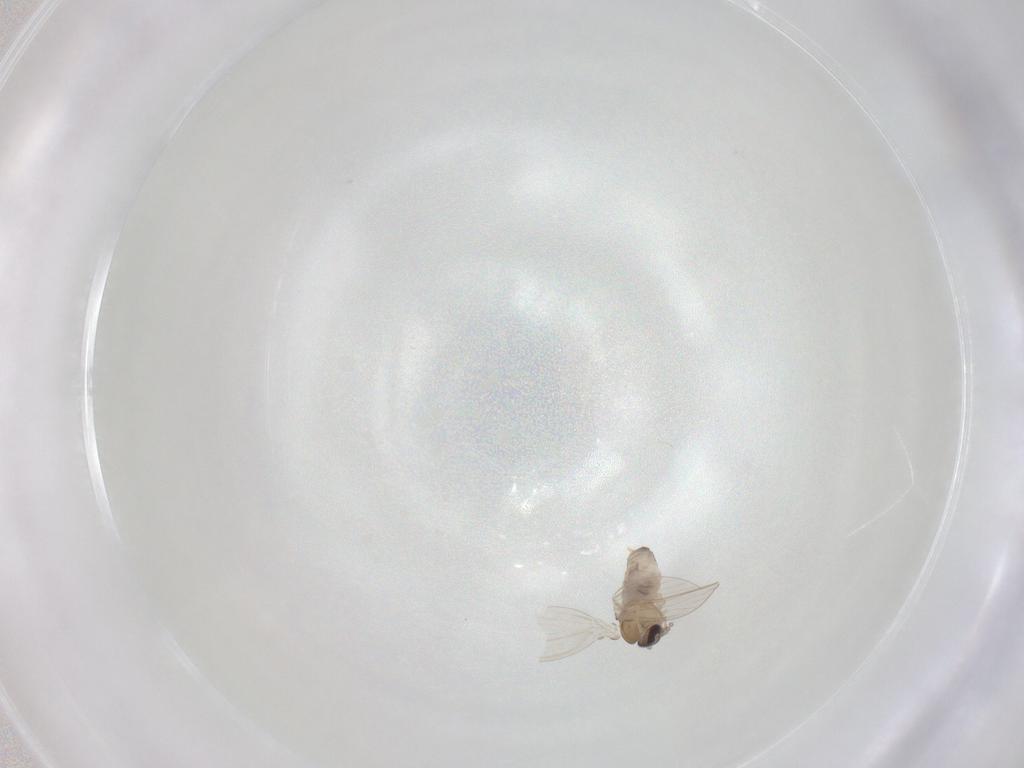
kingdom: Animalia
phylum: Arthropoda
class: Insecta
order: Diptera
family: Psychodidae
